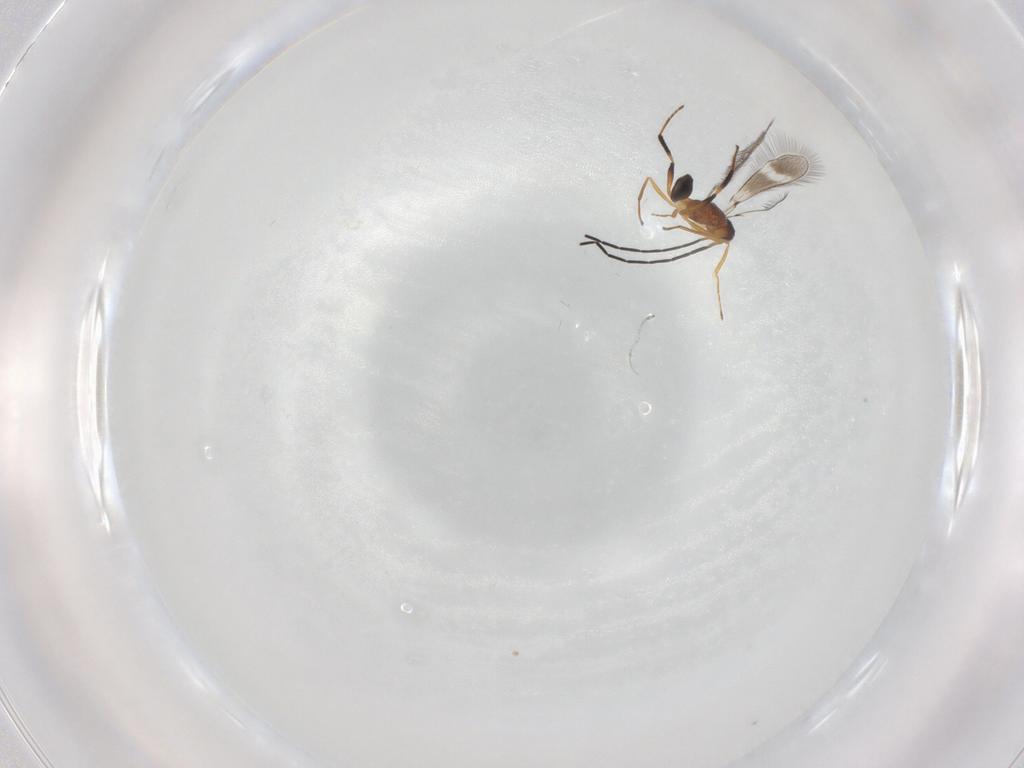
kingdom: Animalia
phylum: Arthropoda
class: Insecta
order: Hymenoptera
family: Mymaridae
